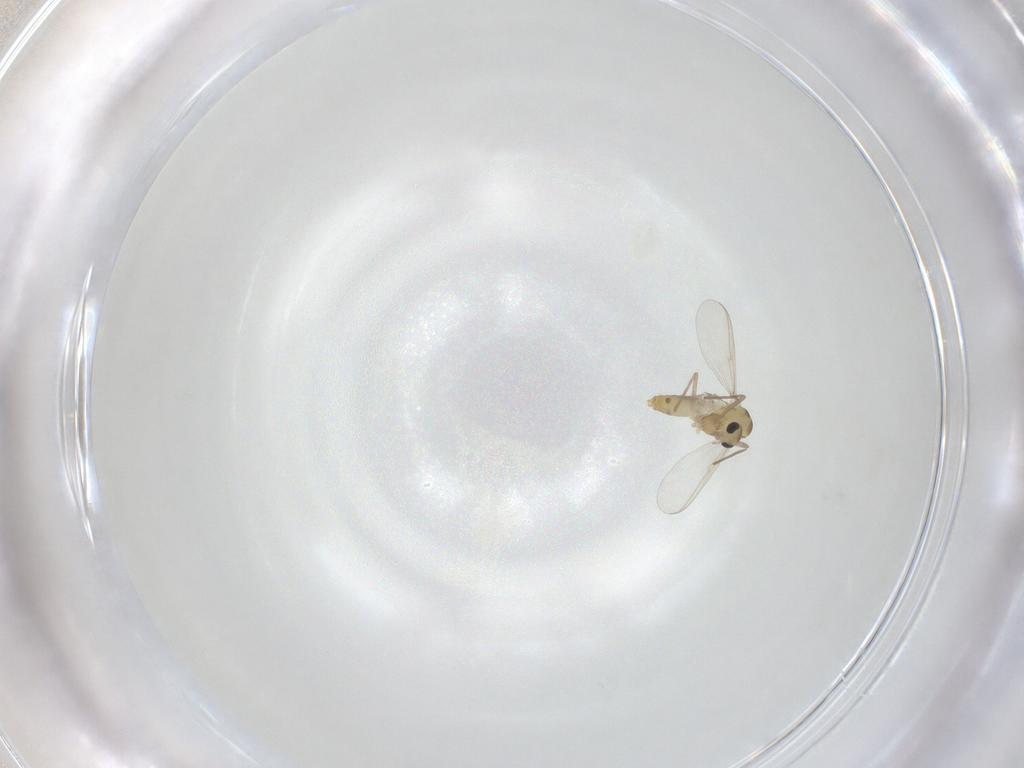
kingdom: Animalia
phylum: Arthropoda
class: Insecta
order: Diptera
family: Chironomidae
